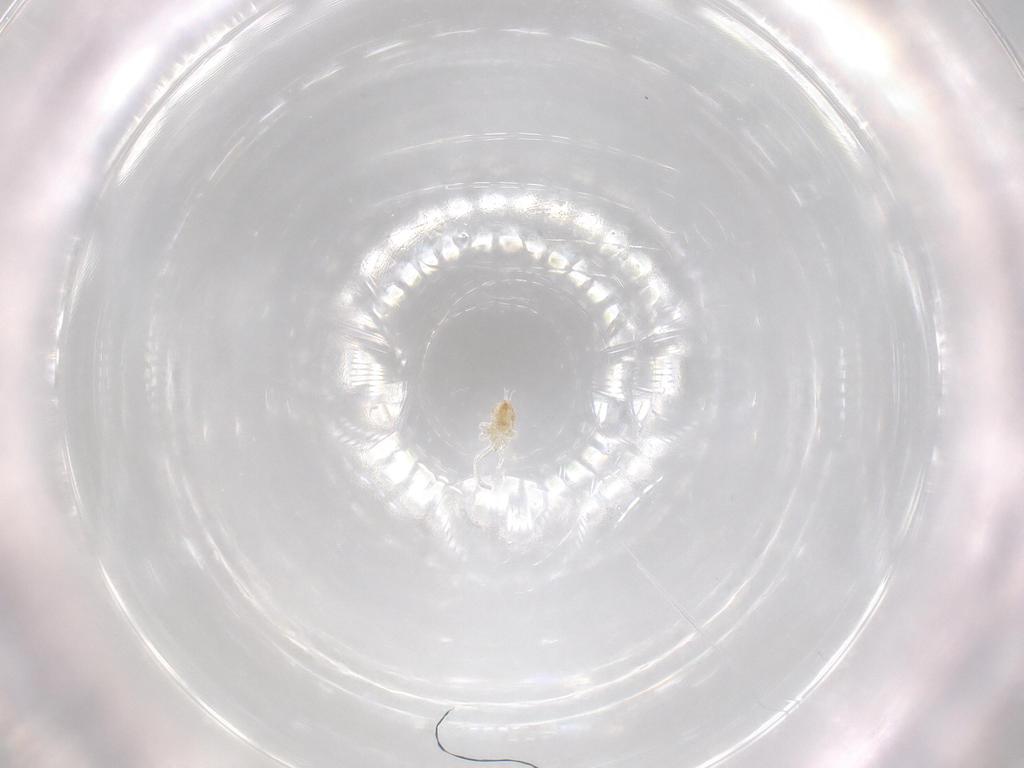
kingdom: Animalia
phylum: Arthropoda
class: Arachnida
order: Trombidiformes
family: Eupodidae
